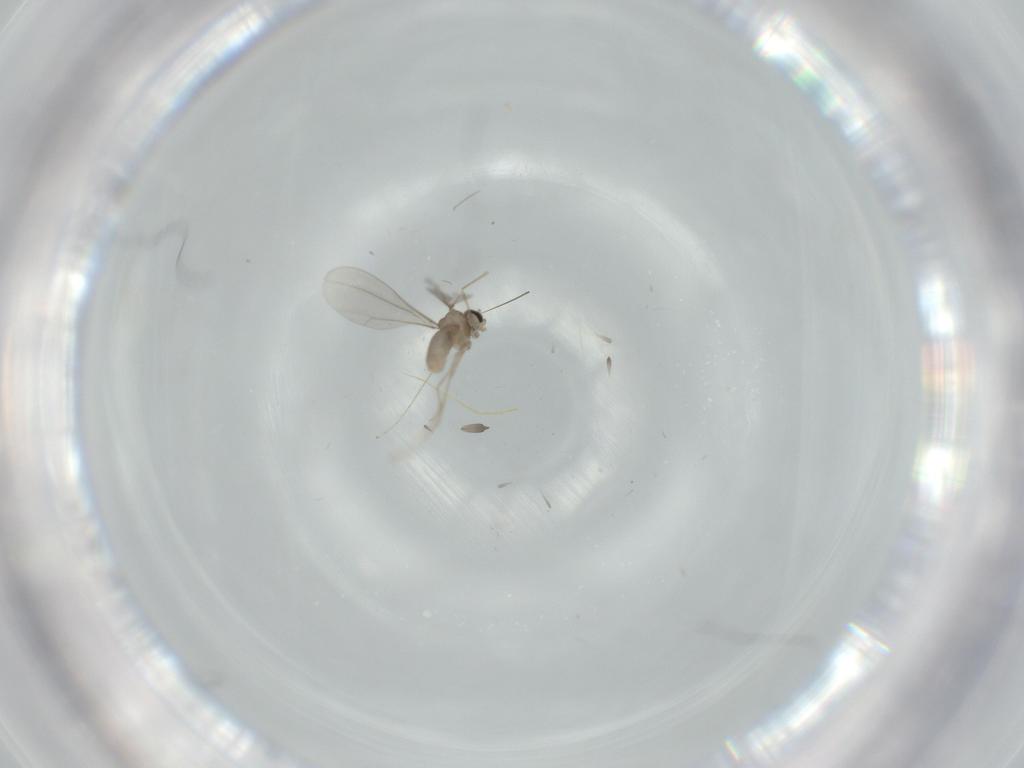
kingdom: Animalia
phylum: Arthropoda
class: Insecta
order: Diptera
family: Cecidomyiidae
